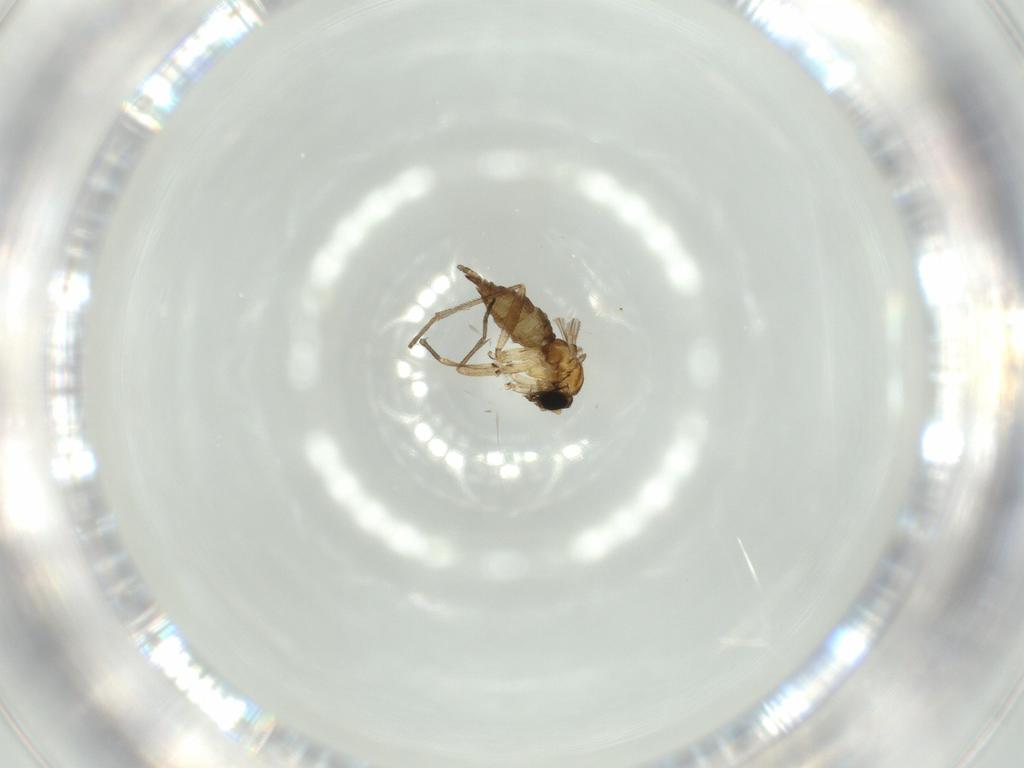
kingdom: Animalia
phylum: Arthropoda
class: Insecta
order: Diptera
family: Sciaridae
